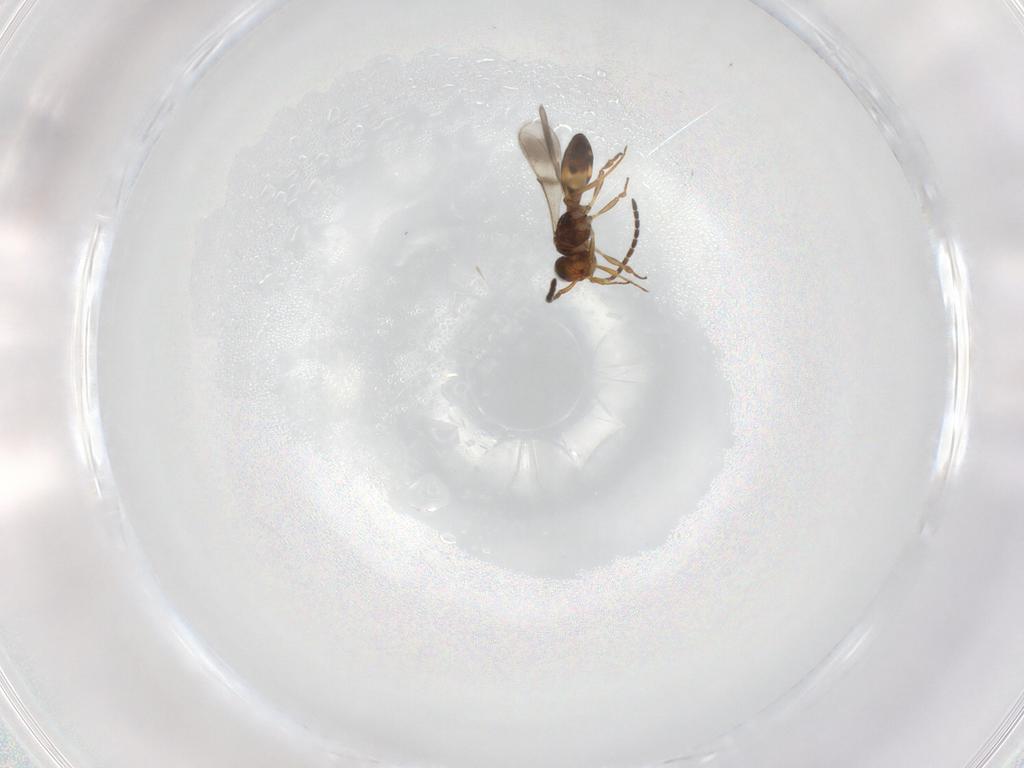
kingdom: Animalia
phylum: Arthropoda
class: Insecta
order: Hymenoptera
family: Scelionidae
